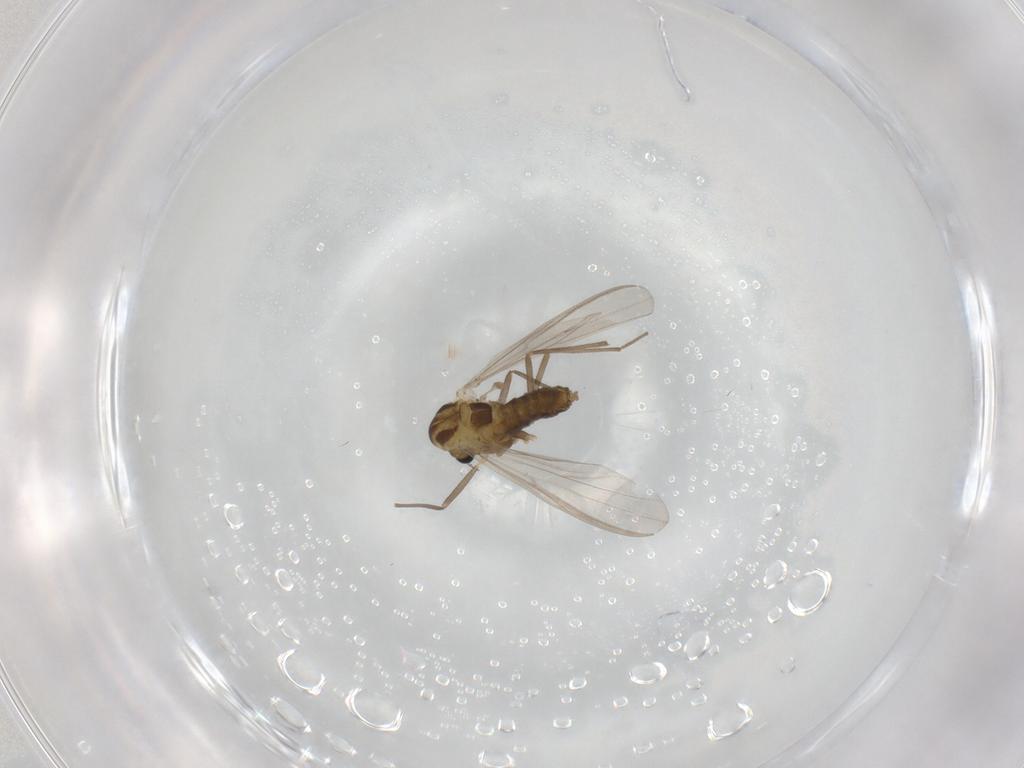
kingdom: Animalia
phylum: Arthropoda
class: Insecta
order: Diptera
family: Chironomidae
